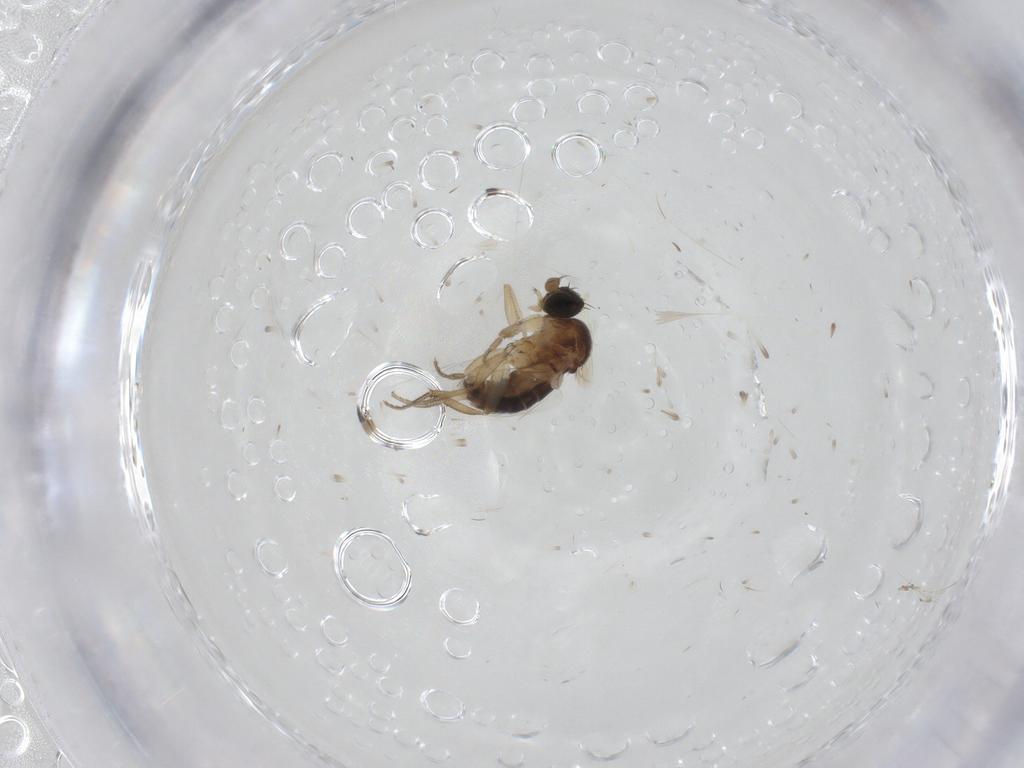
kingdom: Animalia
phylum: Arthropoda
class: Insecta
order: Diptera
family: Phoridae
